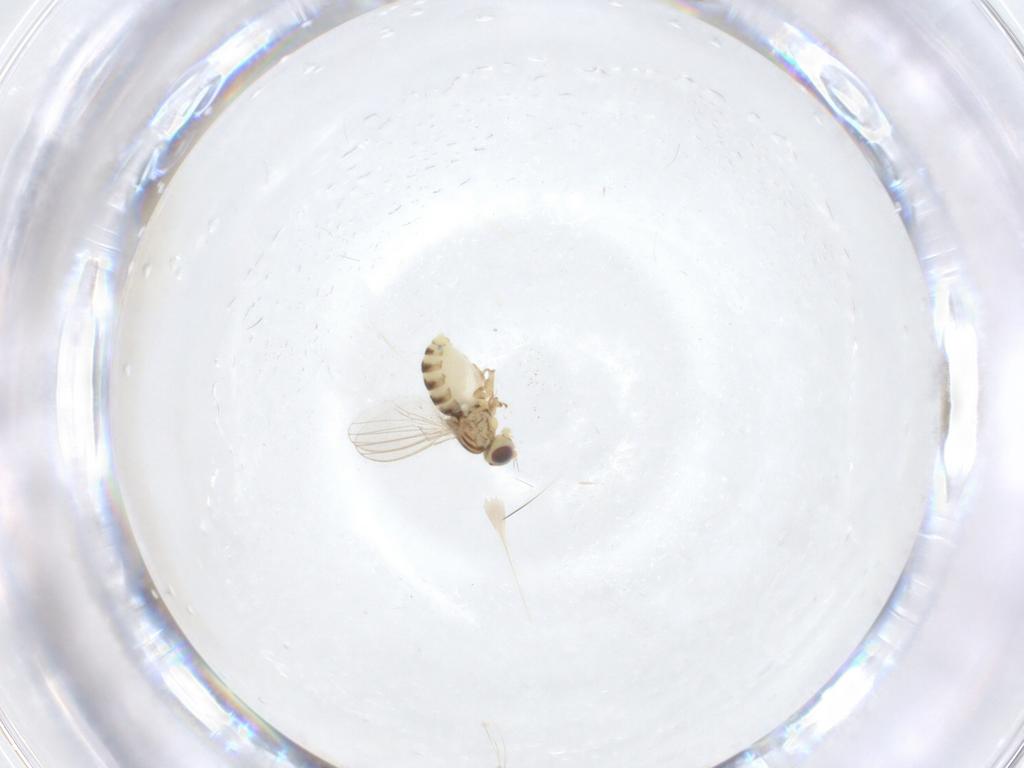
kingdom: Animalia
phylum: Arthropoda
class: Insecta
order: Diptera
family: Chyromyidae
